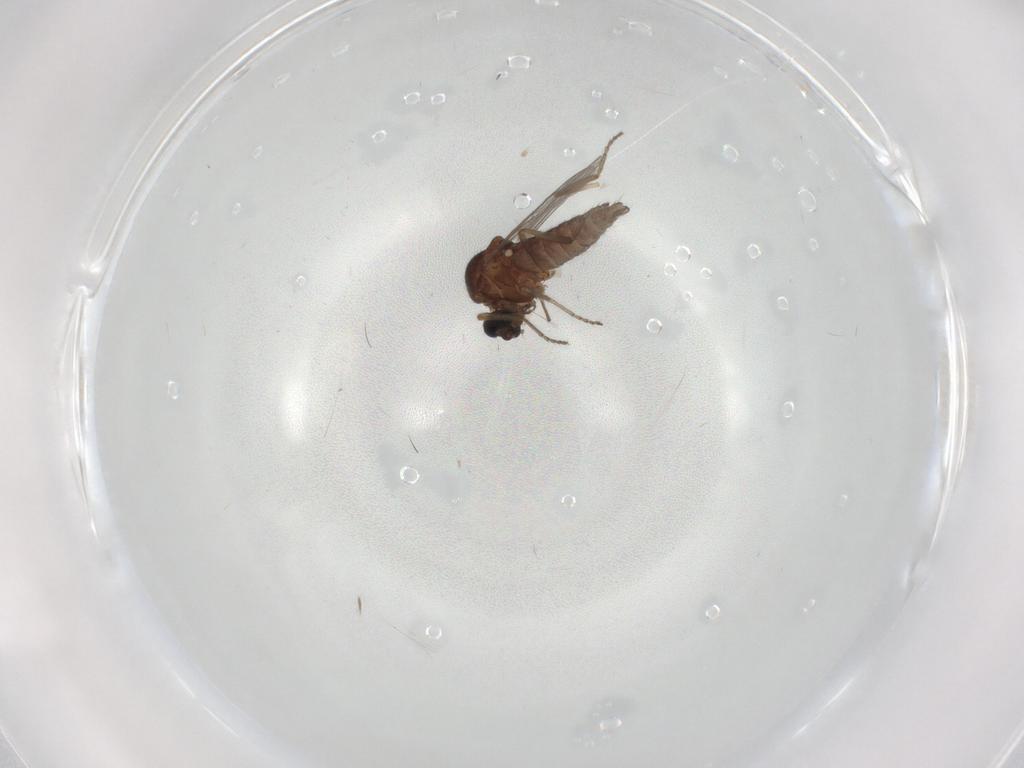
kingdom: Animalia
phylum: Arthropoda
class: Insecta
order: Diptera
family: Ceratopogonidae
